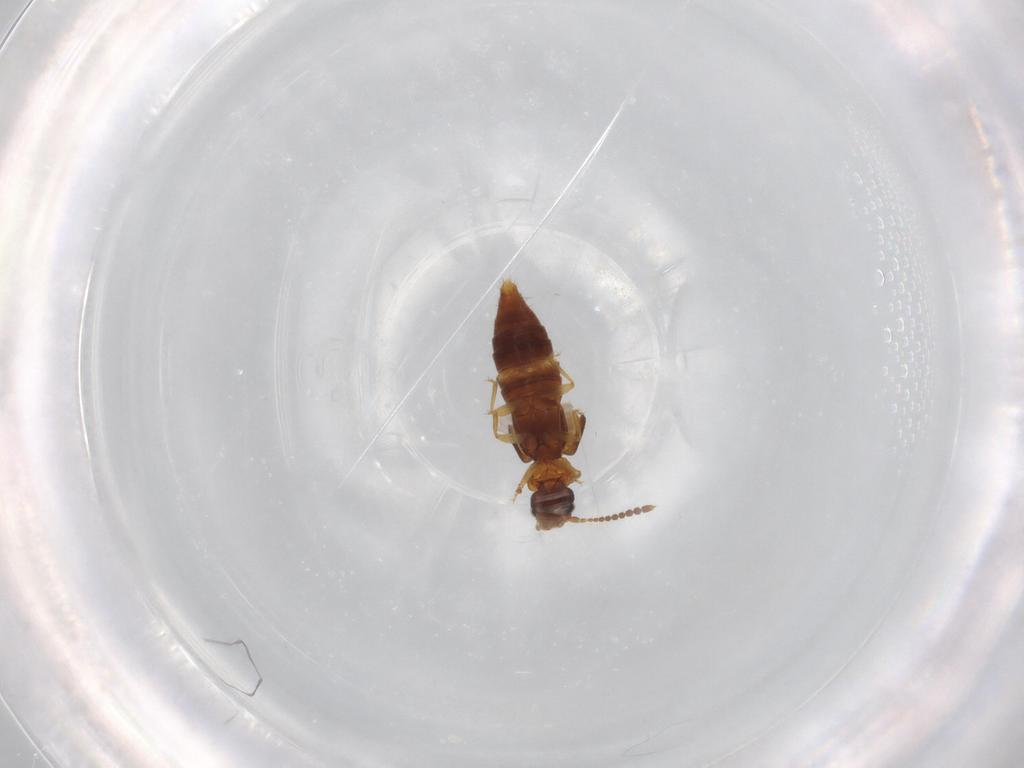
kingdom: Animalia
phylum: Arthropoda
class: Insecta
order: Coleoptera
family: Staphylinidae
